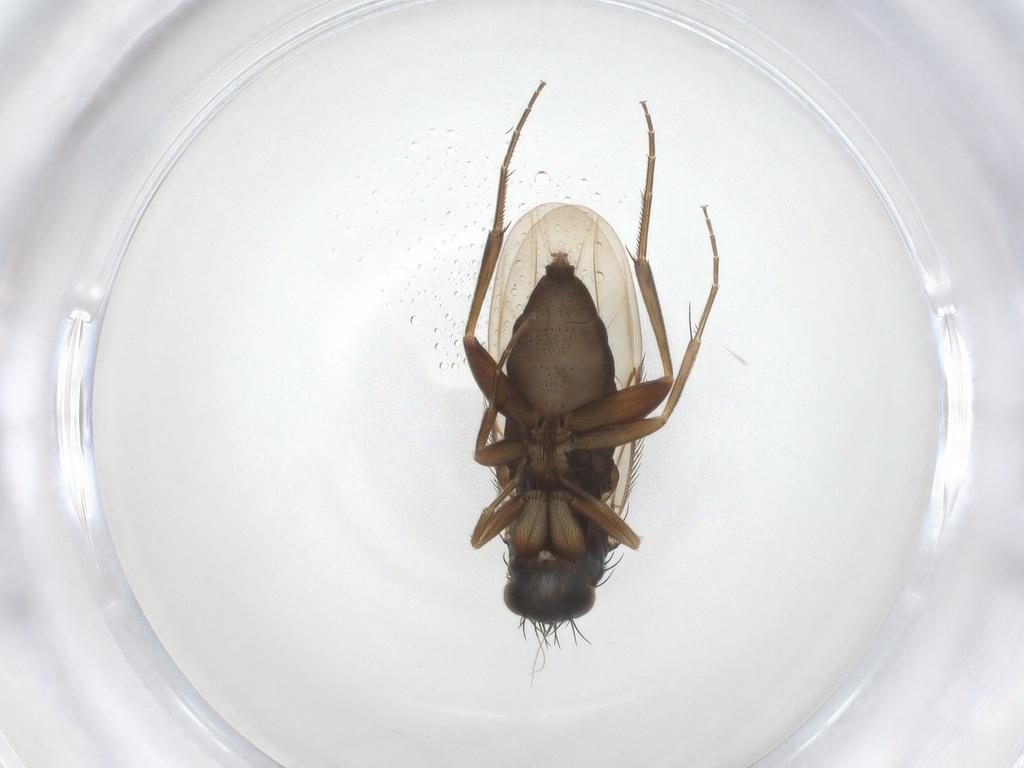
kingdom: Animalia
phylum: Arthropoda
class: Insecta
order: Diptera
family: Phoridae
